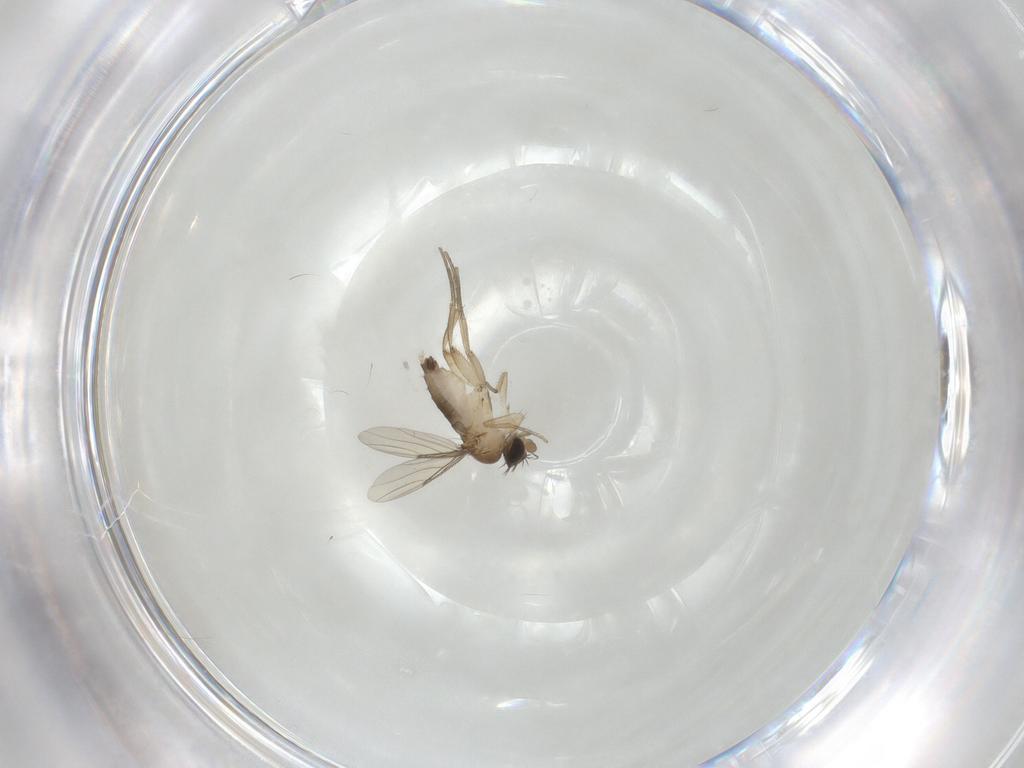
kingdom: Animalia
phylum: Arthropoda
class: Insecta
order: Diptera
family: Phoridae
